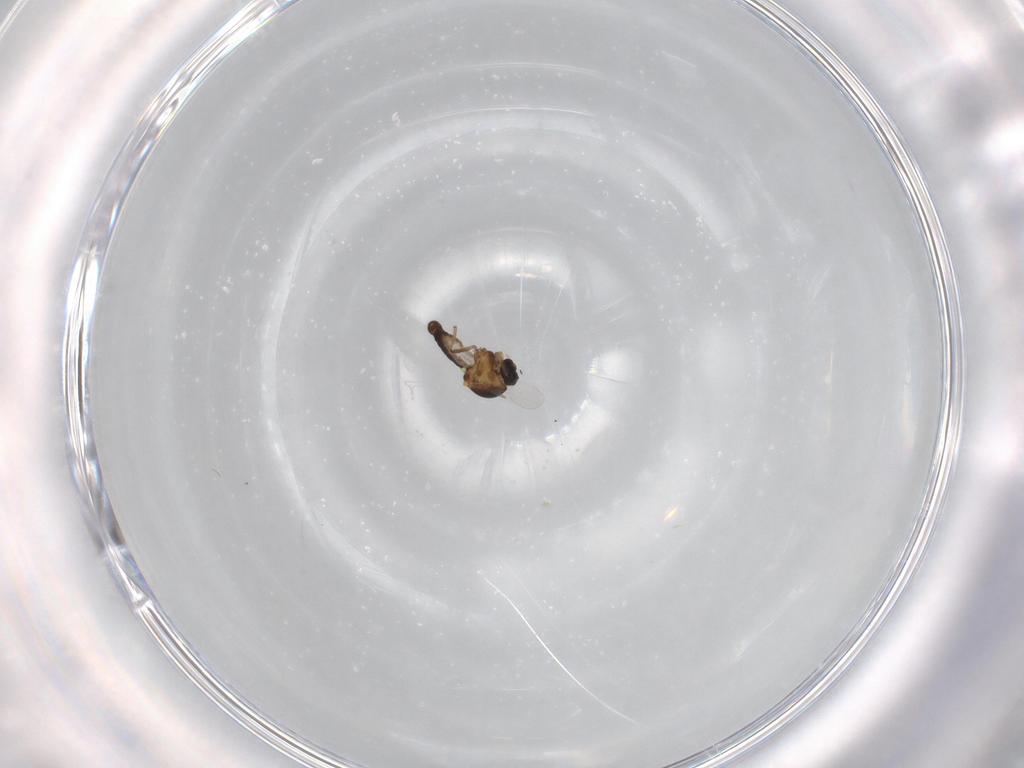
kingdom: Animalia
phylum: Arthropoda
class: Insecta
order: Diptera
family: Ceratopogonidae
